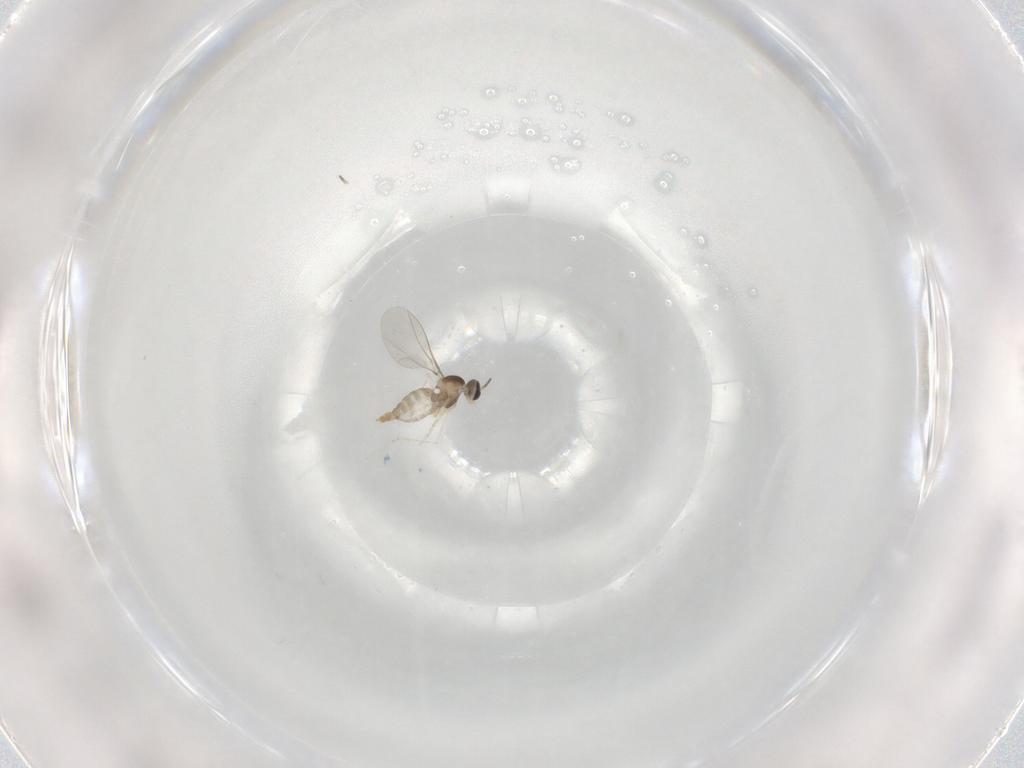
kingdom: Animalia
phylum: Arthropoda
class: Insecta
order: Diptera
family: Cecidomyiidae
